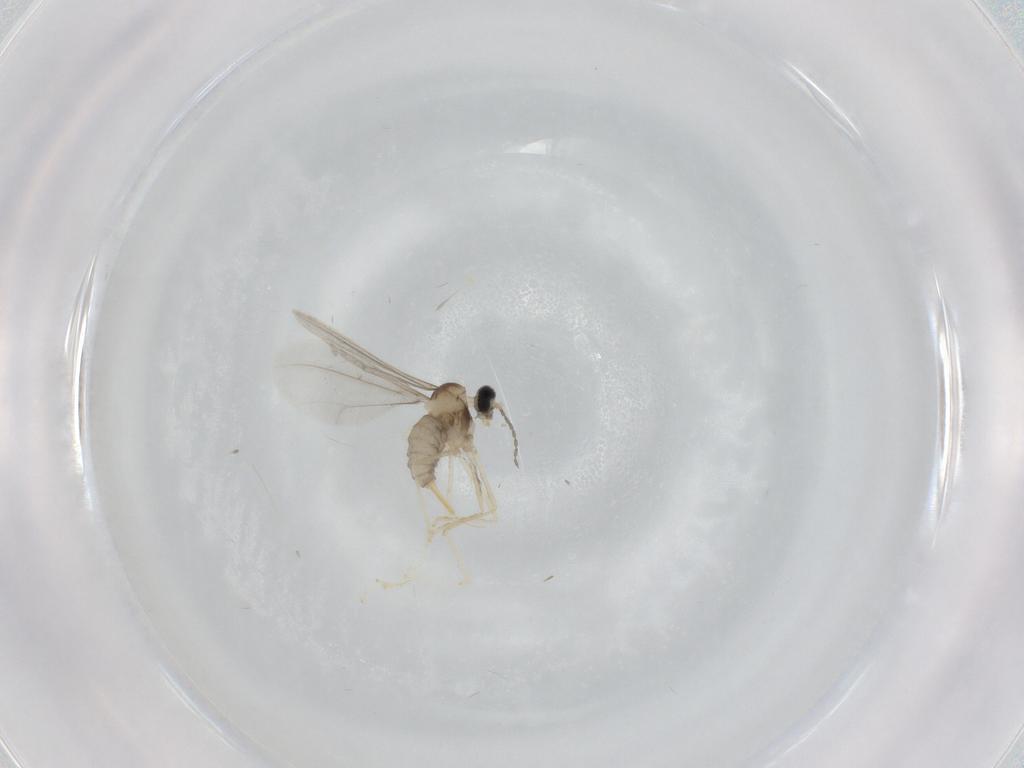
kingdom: Animalia
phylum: Arthropoda
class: Insecta
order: Diptera
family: Cecidomyiidae
